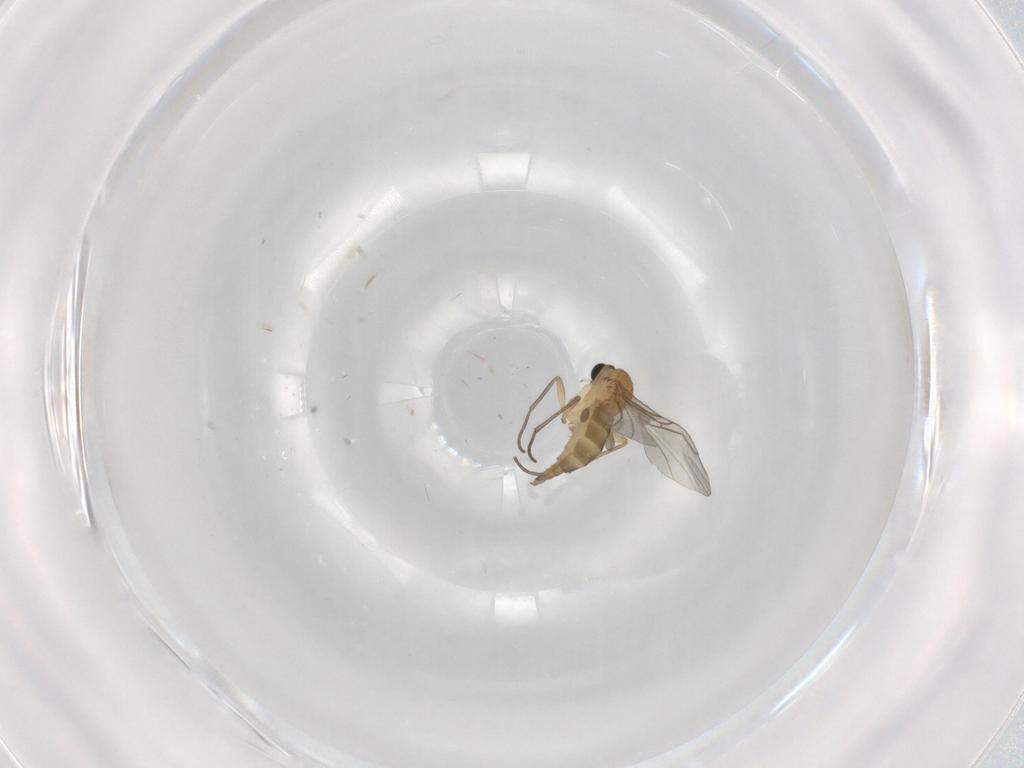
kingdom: Animalia
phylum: Arthropoda
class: Insecta
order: Diptera
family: Sciaridae
